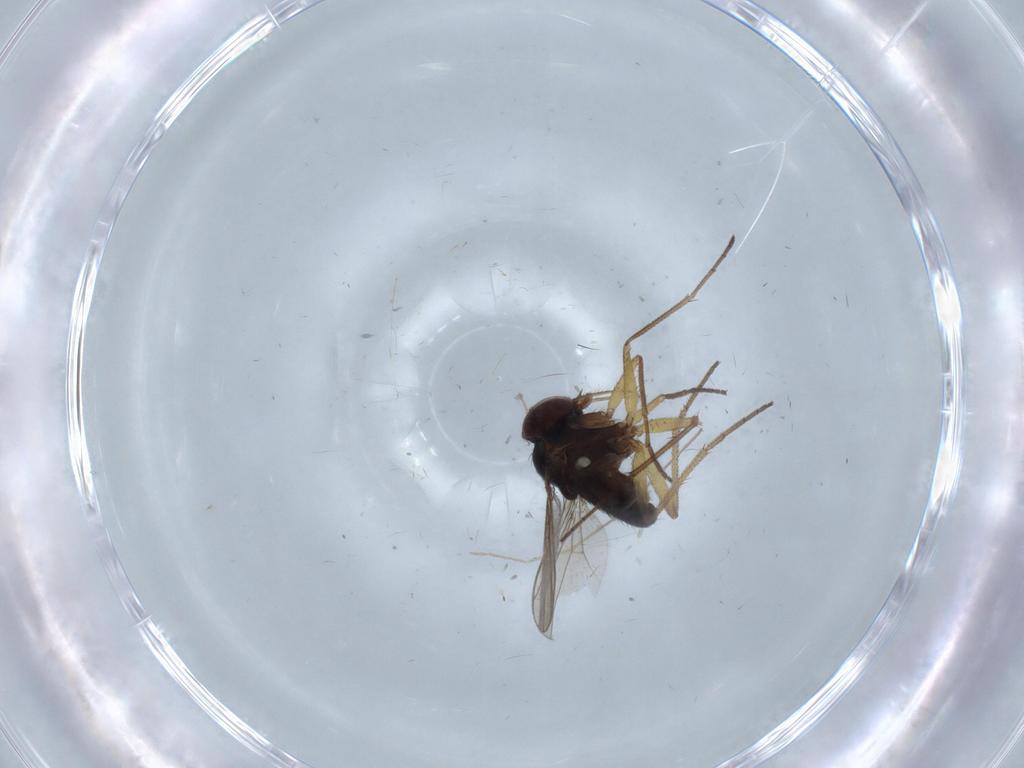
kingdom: Animalia
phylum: Arthropoda
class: Insecta
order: Diptera
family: Dolichopodidae
